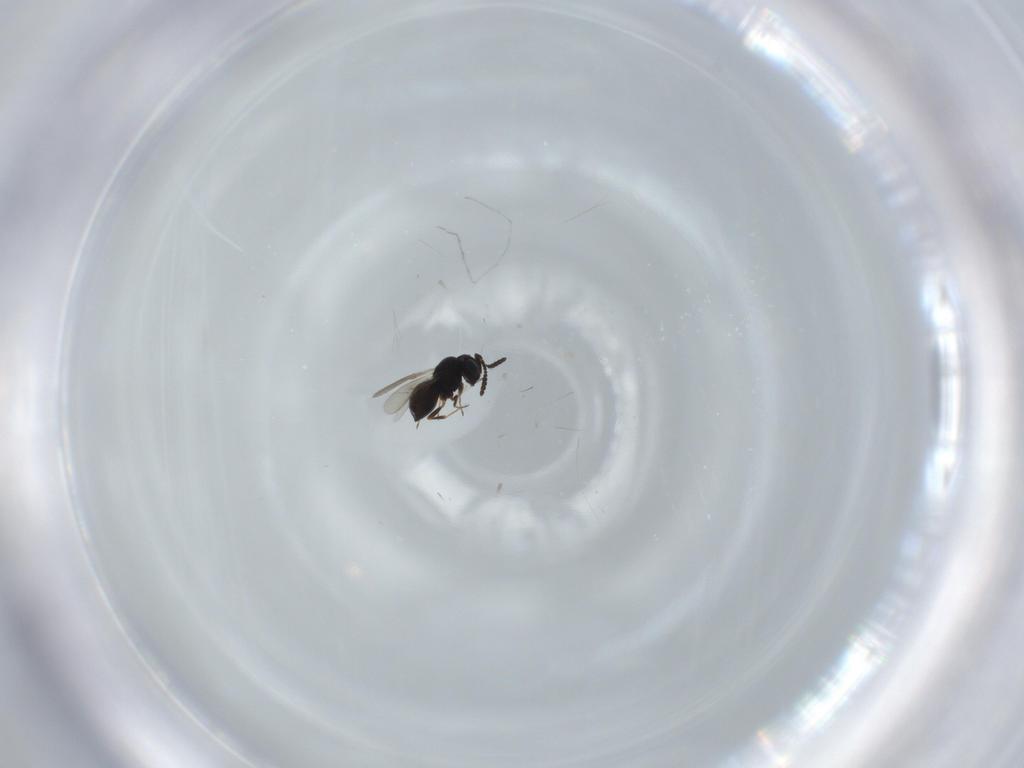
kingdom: Animalia
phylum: Arthropoda
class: Insecta
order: Hymenoptera
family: Scelionidae
